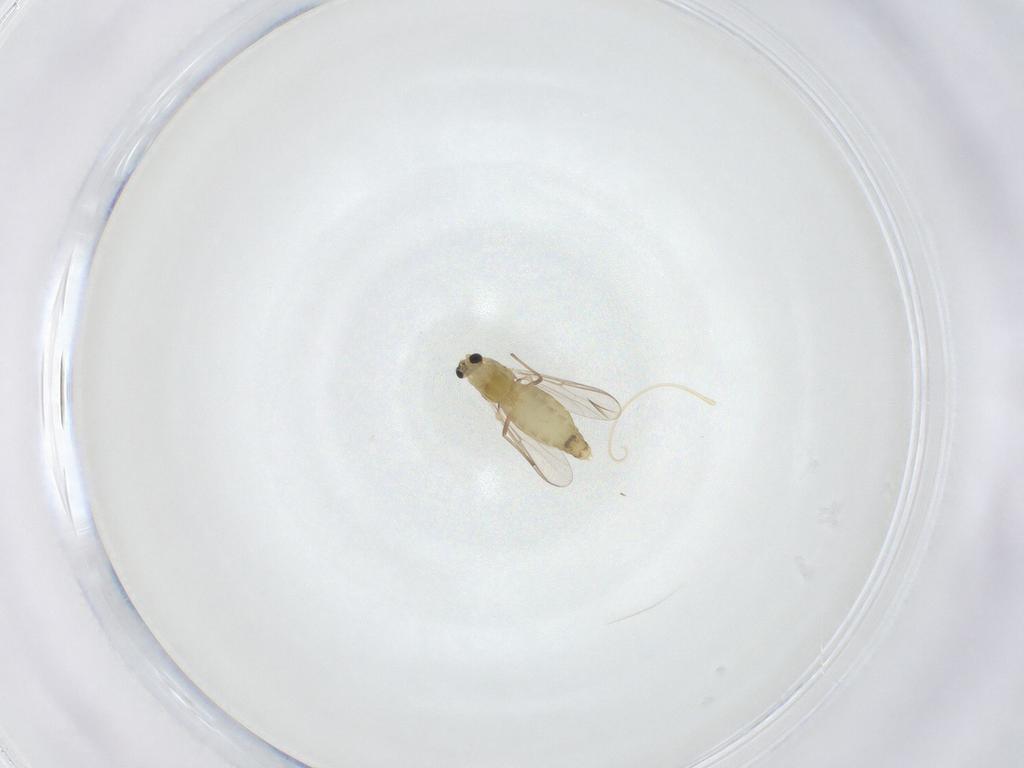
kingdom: Animalia
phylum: Arthropoda
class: Insecta
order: Diptera
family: Chironomidae
